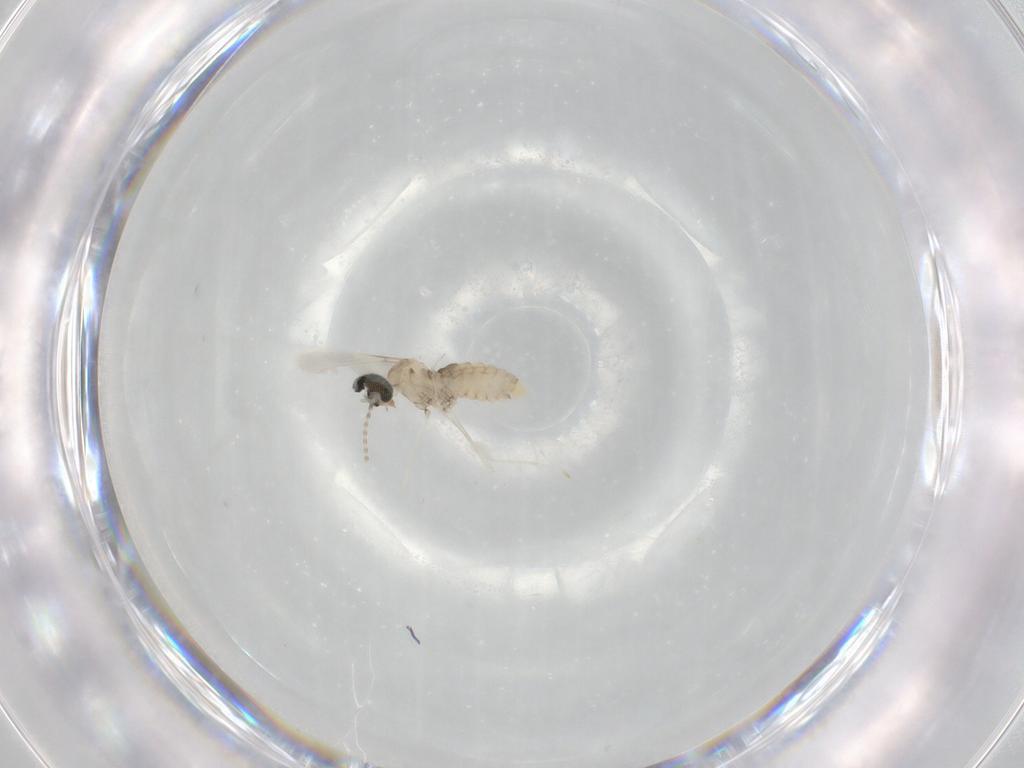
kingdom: Animalia
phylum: Arthropoda
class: Insecta
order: Diptera
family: Cecidomyiidae
